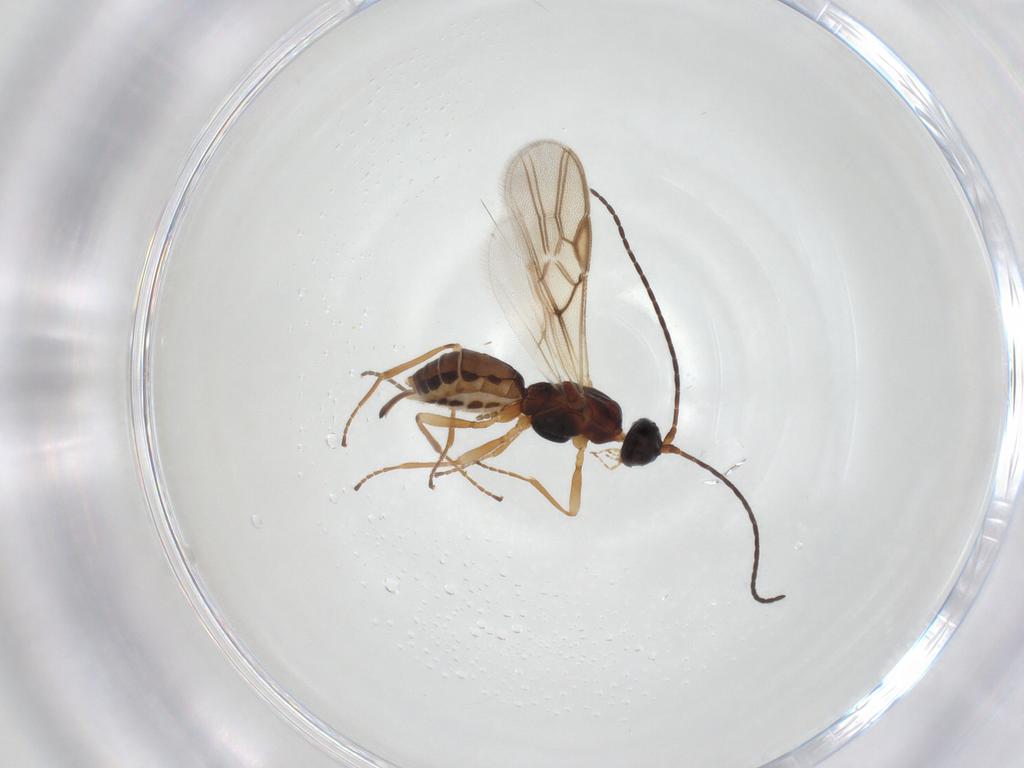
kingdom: Animalia
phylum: Arthropoda
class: Insecta
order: Hymenoptera
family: Braconidae
